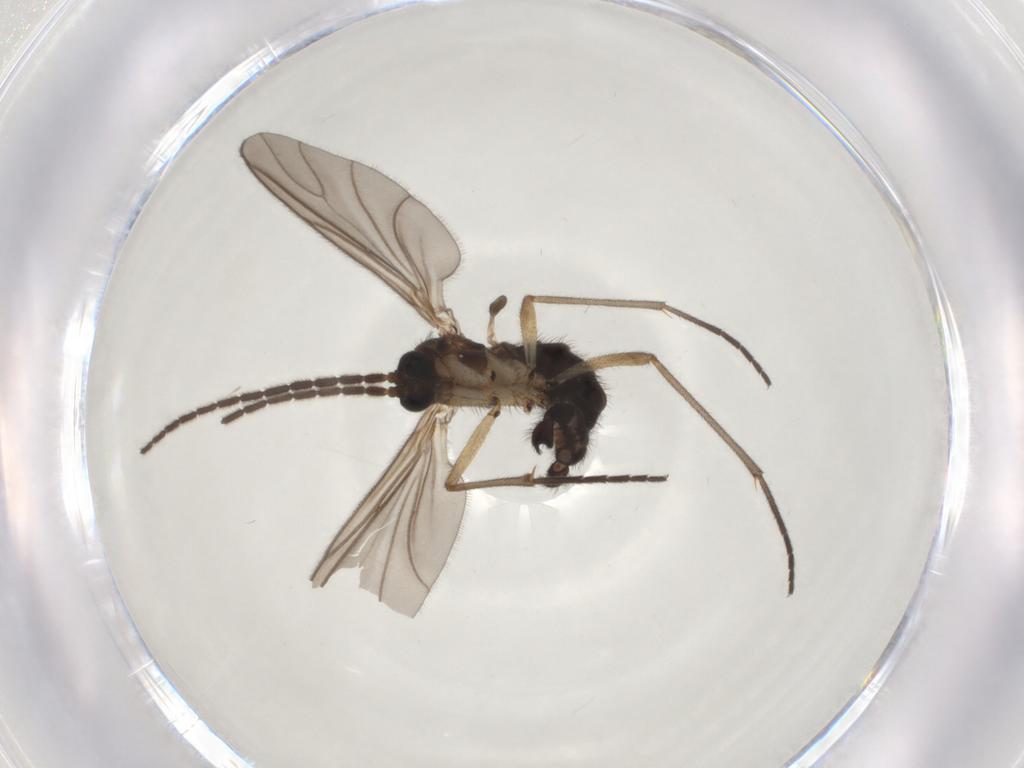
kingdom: Animalia
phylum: Arthropoda
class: Insecta
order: Diptera
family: Sciaridae
